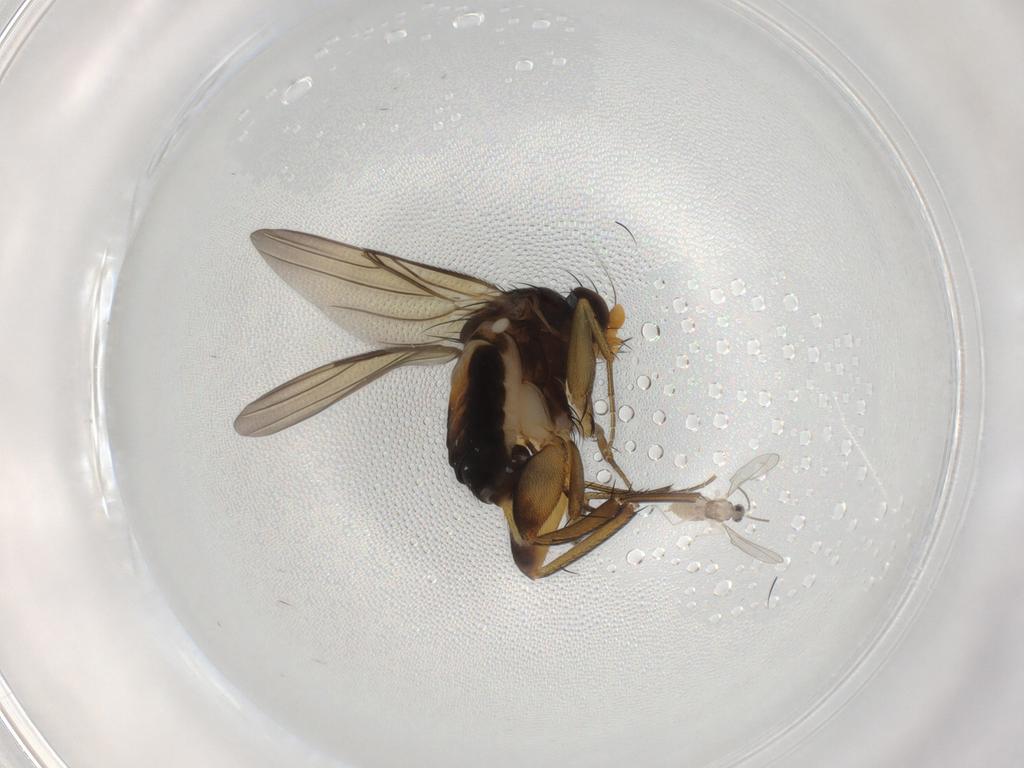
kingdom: Animalia
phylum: Arthropoda
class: Insecta
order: Diptera
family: Phoridae
